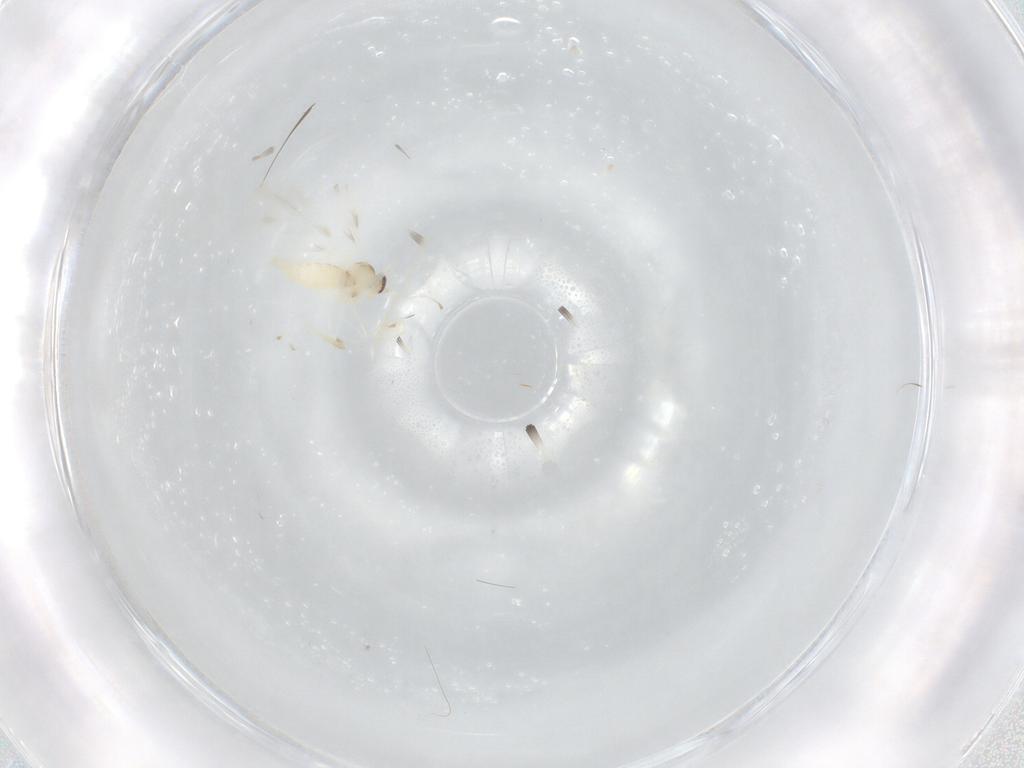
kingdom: Animalia
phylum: Arthropoda
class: Insecta
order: Diptera
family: Cecidomyiidae
